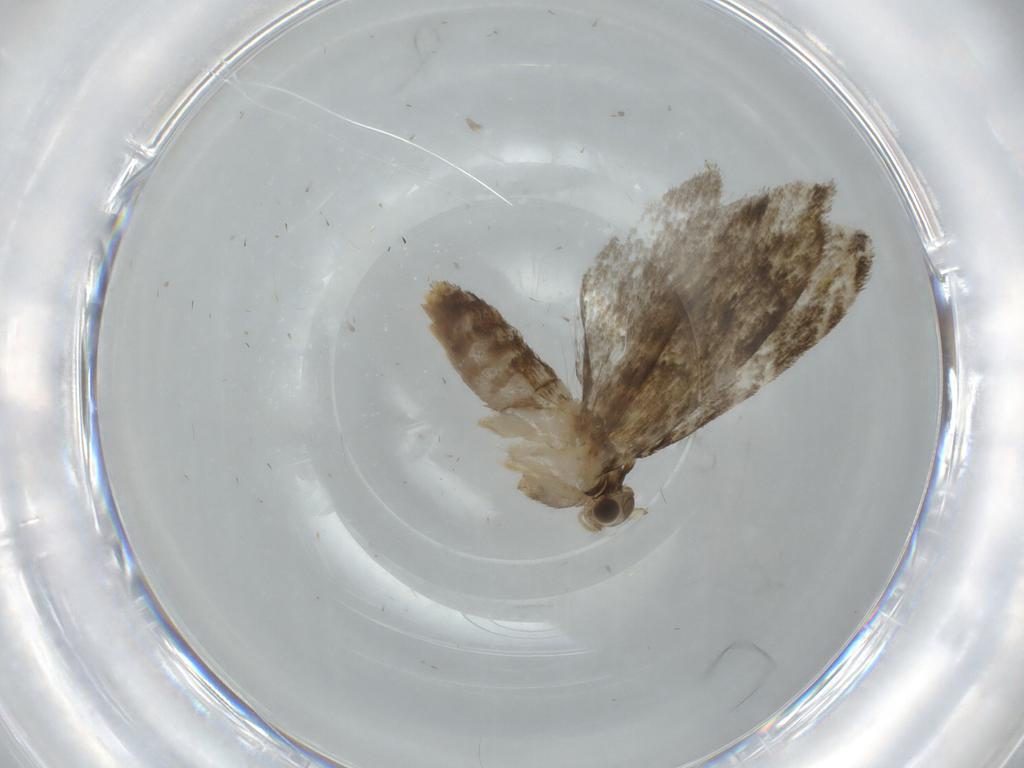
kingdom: Animalia
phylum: Arthropoda
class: Insecta
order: Lepidoptera
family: Tineidae
